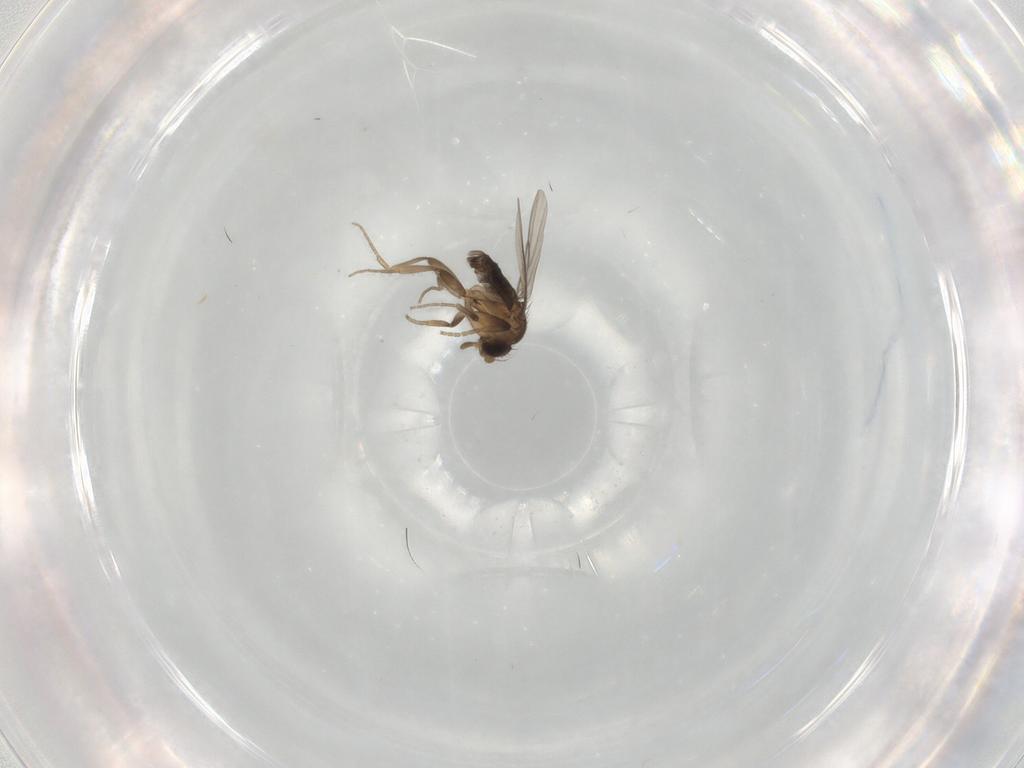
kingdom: Animalia
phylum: Arthropoda
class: Insecta
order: Diptera
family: Phoridae
